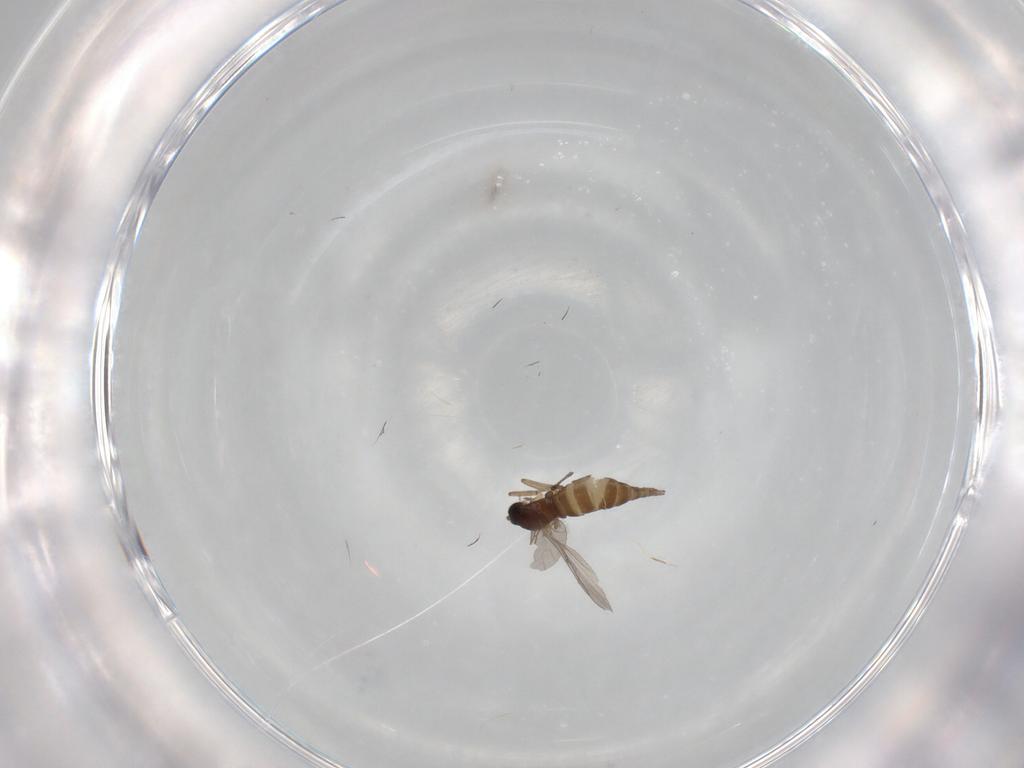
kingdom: Animalia
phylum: Arthropoda
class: Insecta
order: Diptera
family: Sciaridae
